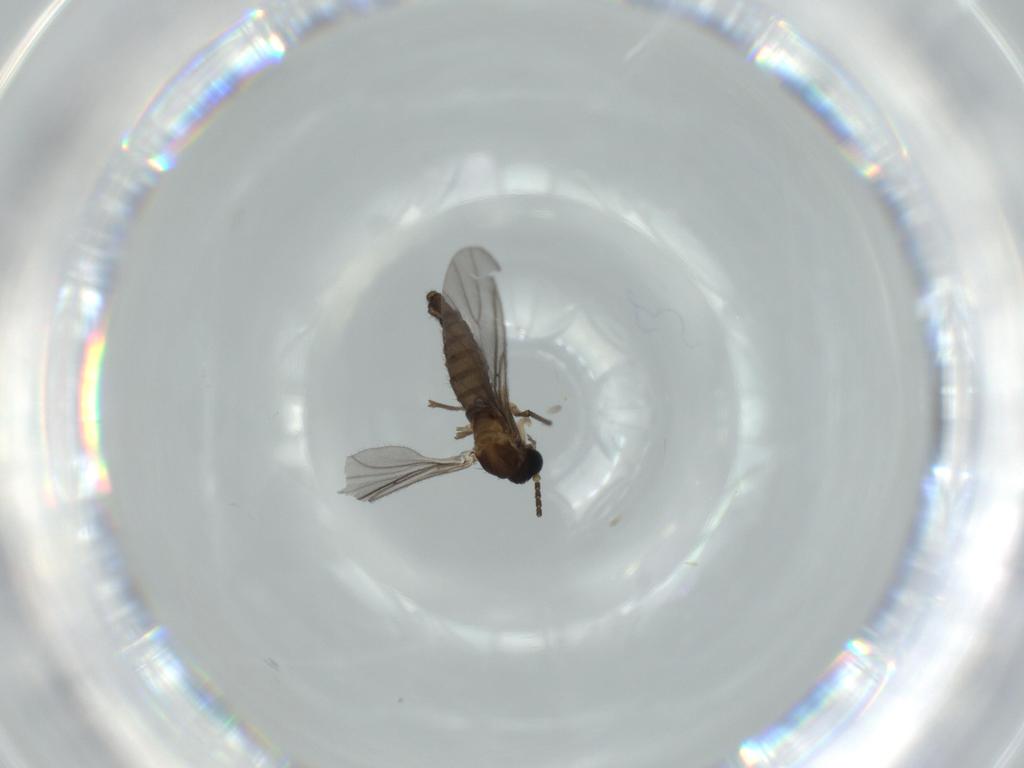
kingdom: Animalia
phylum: Arthropoda
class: Insecta
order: Diptera
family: Sciaridae
